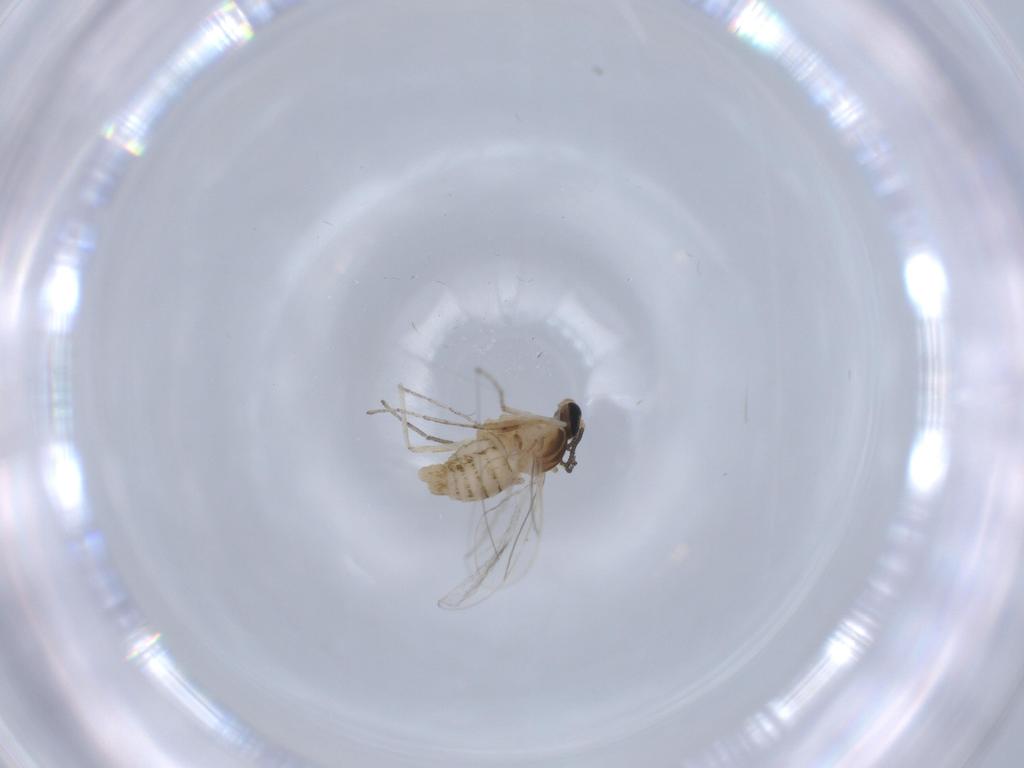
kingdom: Animalia
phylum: Arthropoda
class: Insecta
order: Diptera
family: Cecidomyiidae
